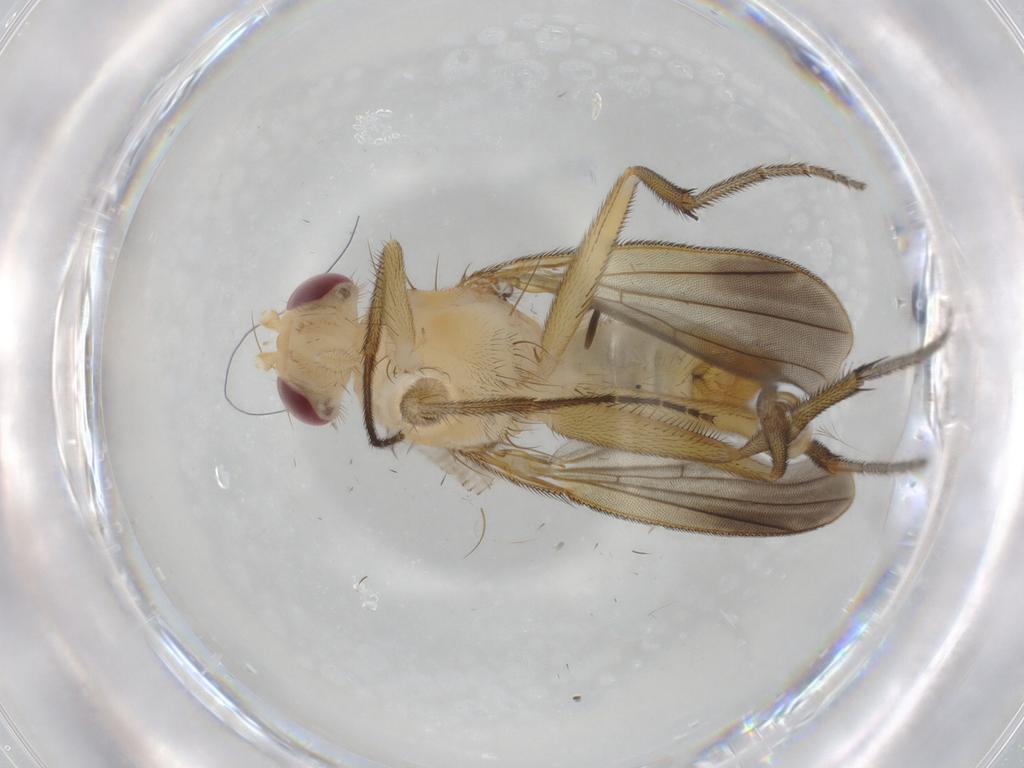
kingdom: Animalia
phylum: Arthropoda
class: Insecta
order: Diptera
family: Clusiidae
